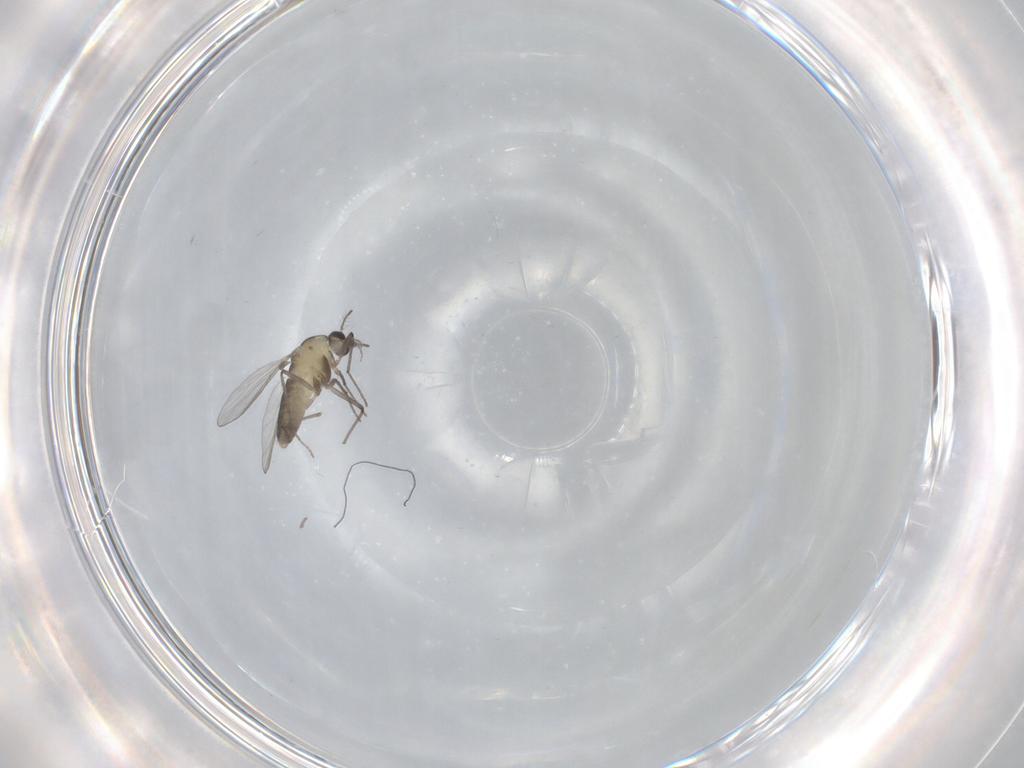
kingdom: Animalia
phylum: Arthropoda
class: Insecta
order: Diptera
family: Chironomidae
